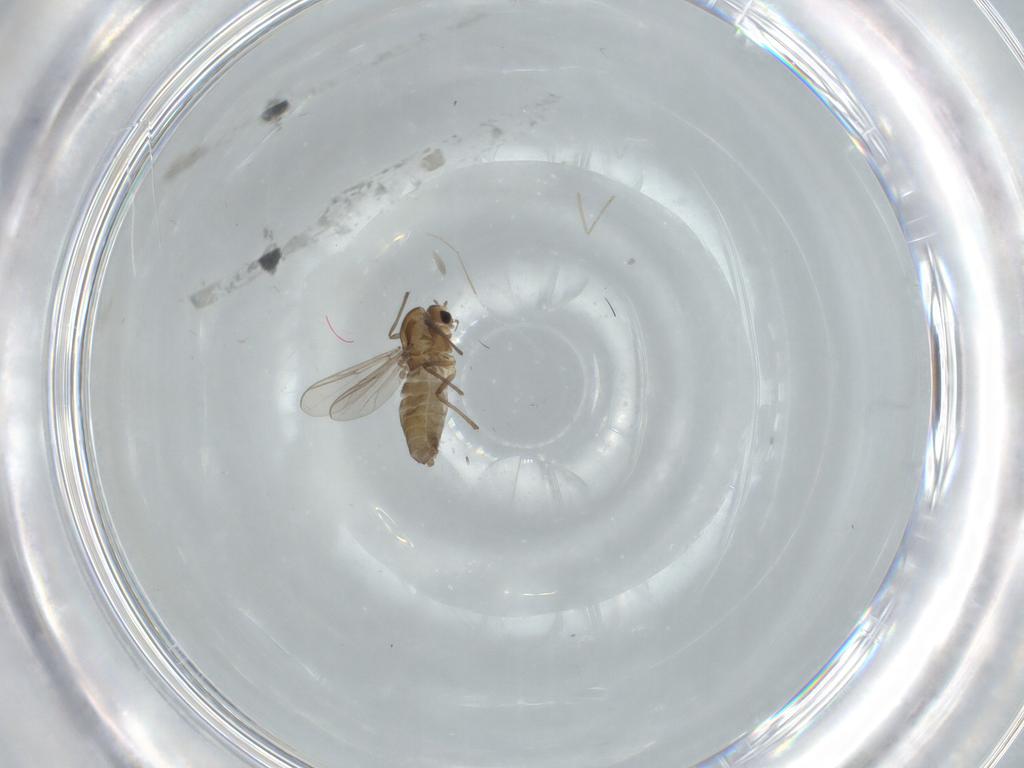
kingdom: Animalia
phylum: Arthropoda
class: Insecta
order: Diptera
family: Chironomidae
